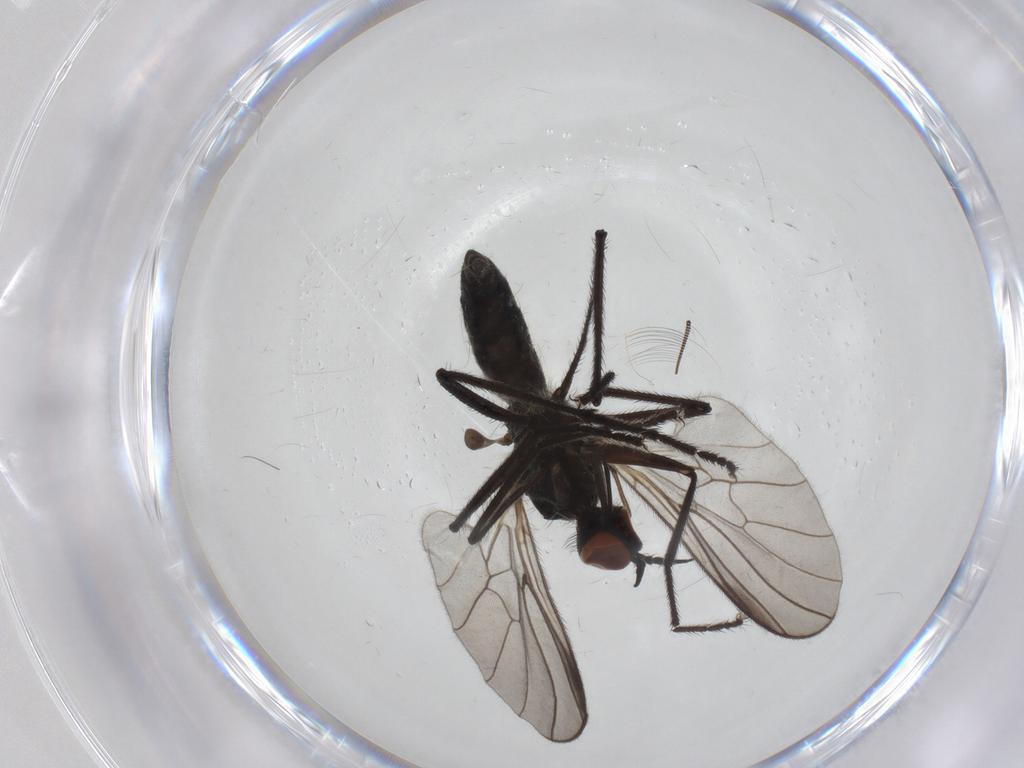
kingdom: Animalia
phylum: Arthropoda
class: Insecta
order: Diptera
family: Empididae
